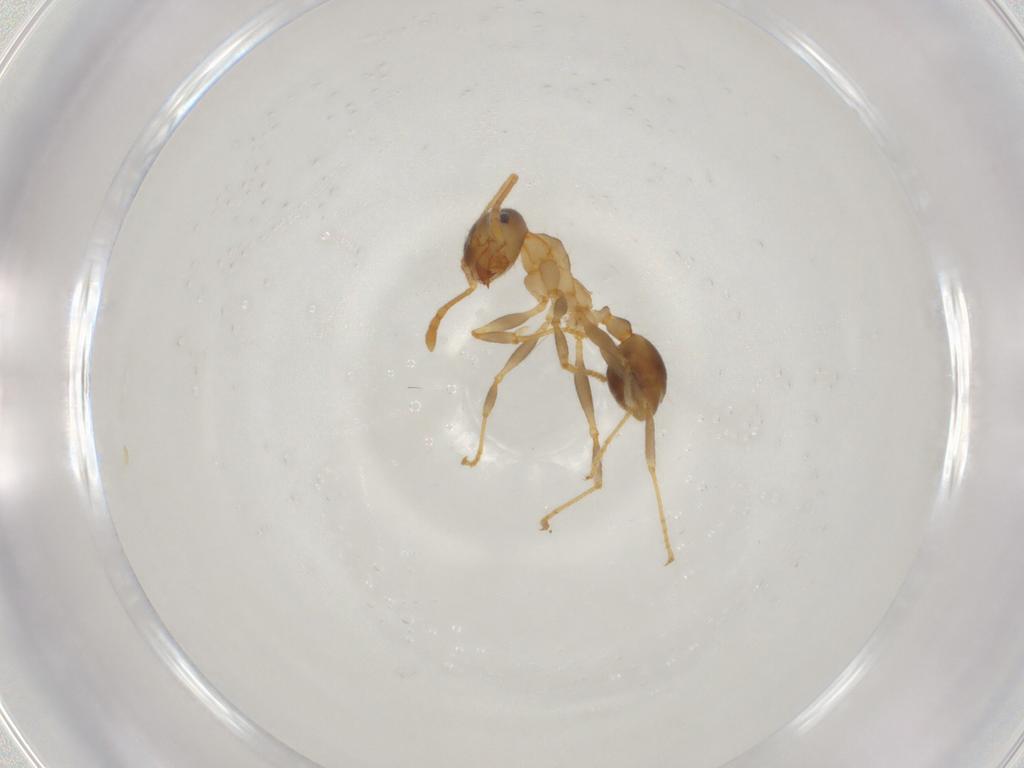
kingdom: Animalia
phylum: Arthropoda
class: Insecta
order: Hymenoptera
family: Formicidae
